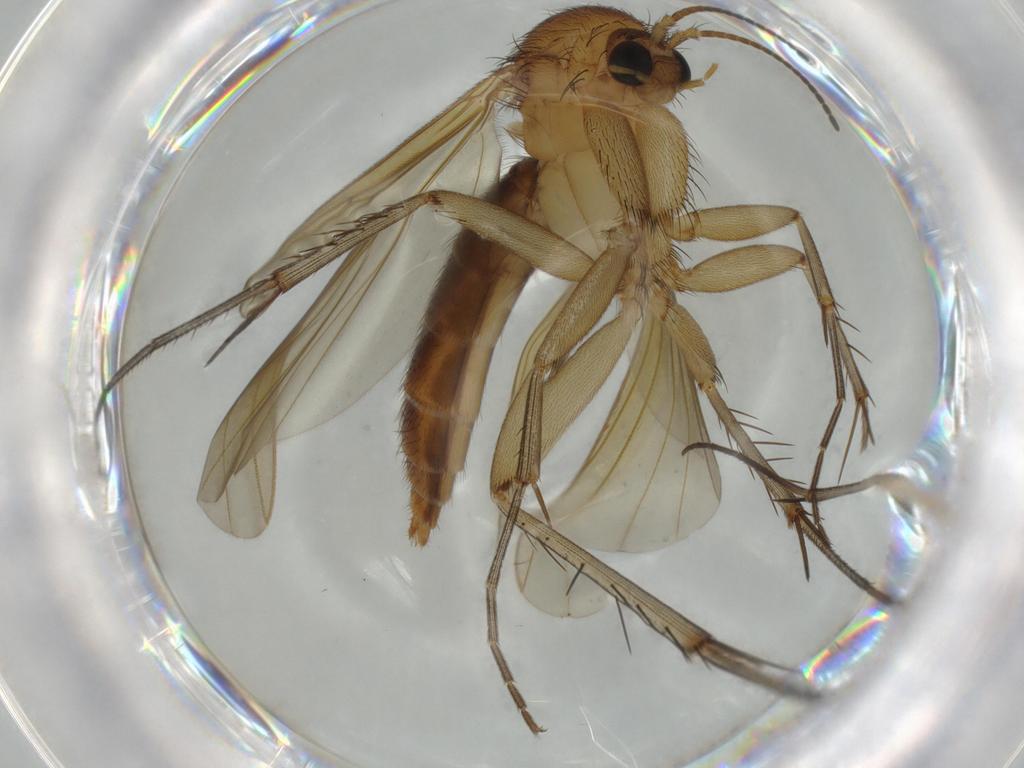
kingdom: Animalia
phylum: Arthropoda
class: Insecta
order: Diptera
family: Mycetophilidae
